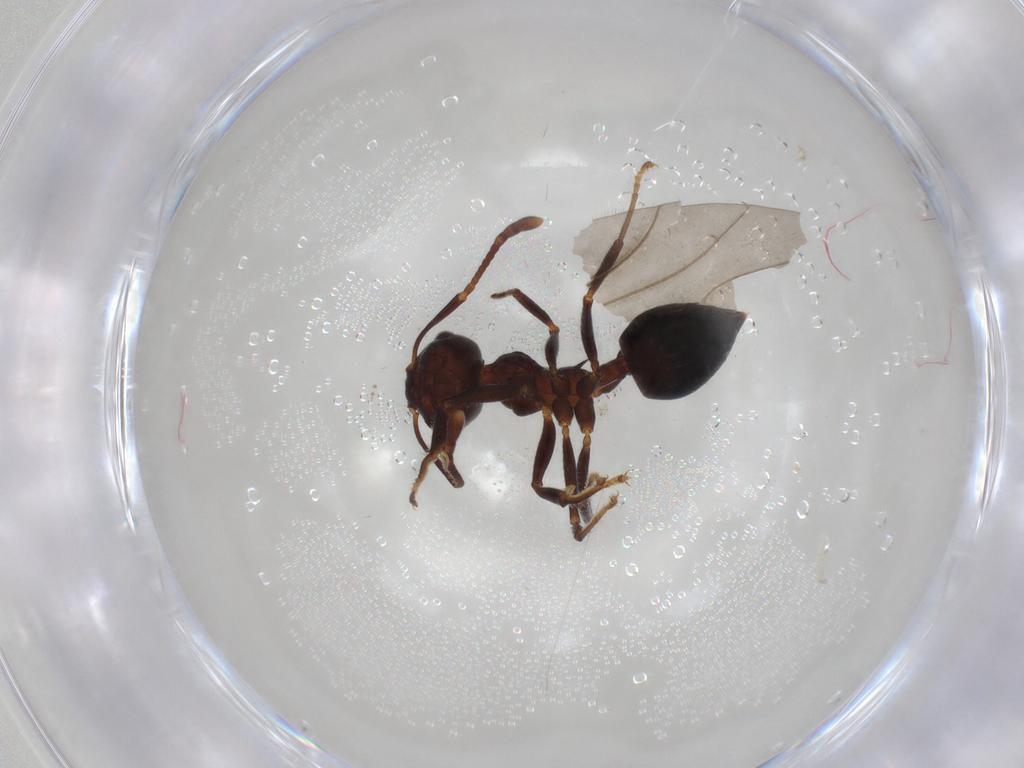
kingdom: Animalia
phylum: Arthropoda
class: Insecta
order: Hymenoptera
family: Formicidae
